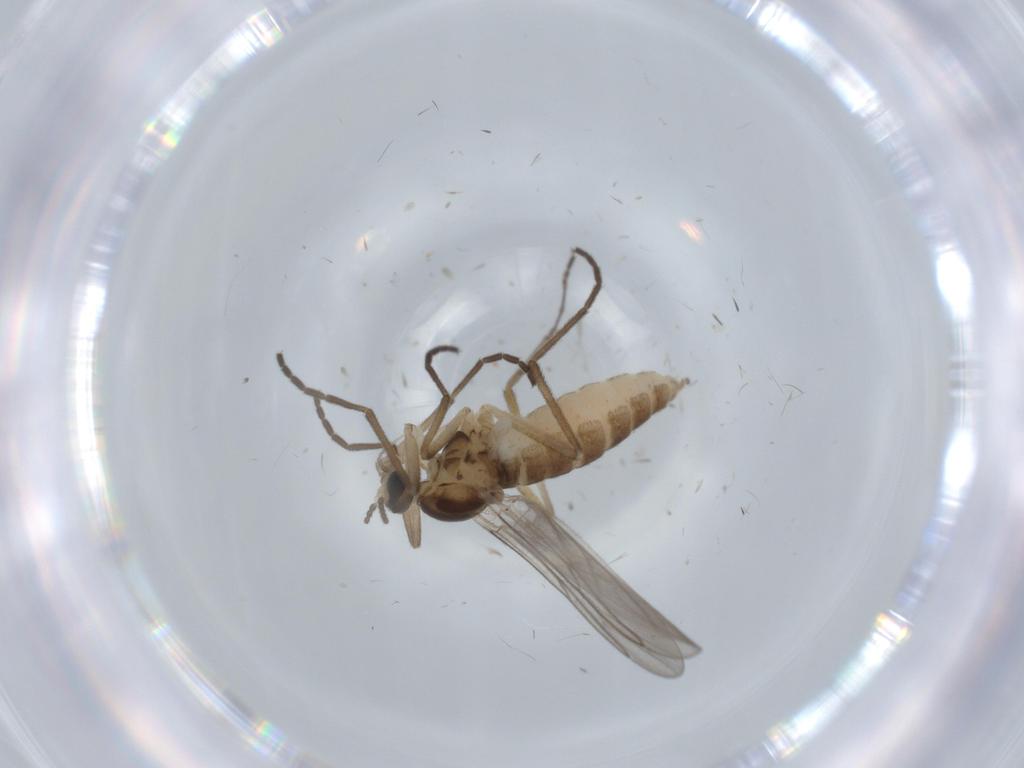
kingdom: Animalia
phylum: Arthropoda
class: Insecta
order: Diptera
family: Cecidomyiidae
